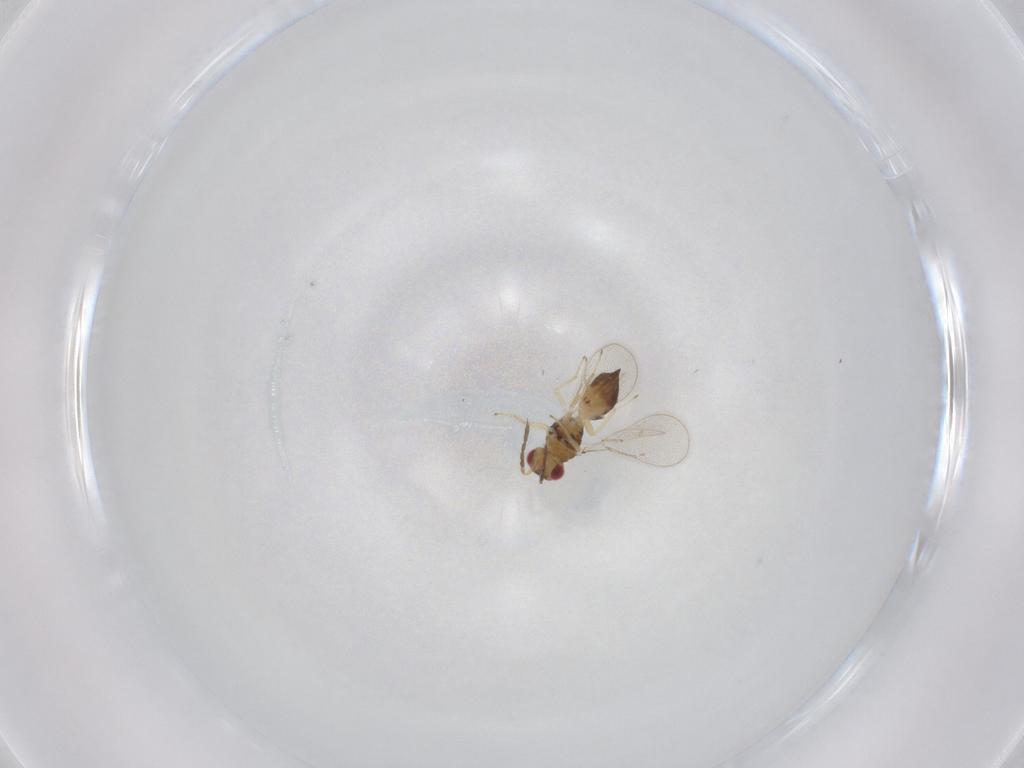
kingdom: Animalia
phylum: Arthropoda
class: Insecta
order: Hymenoptera
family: Eulophidae
